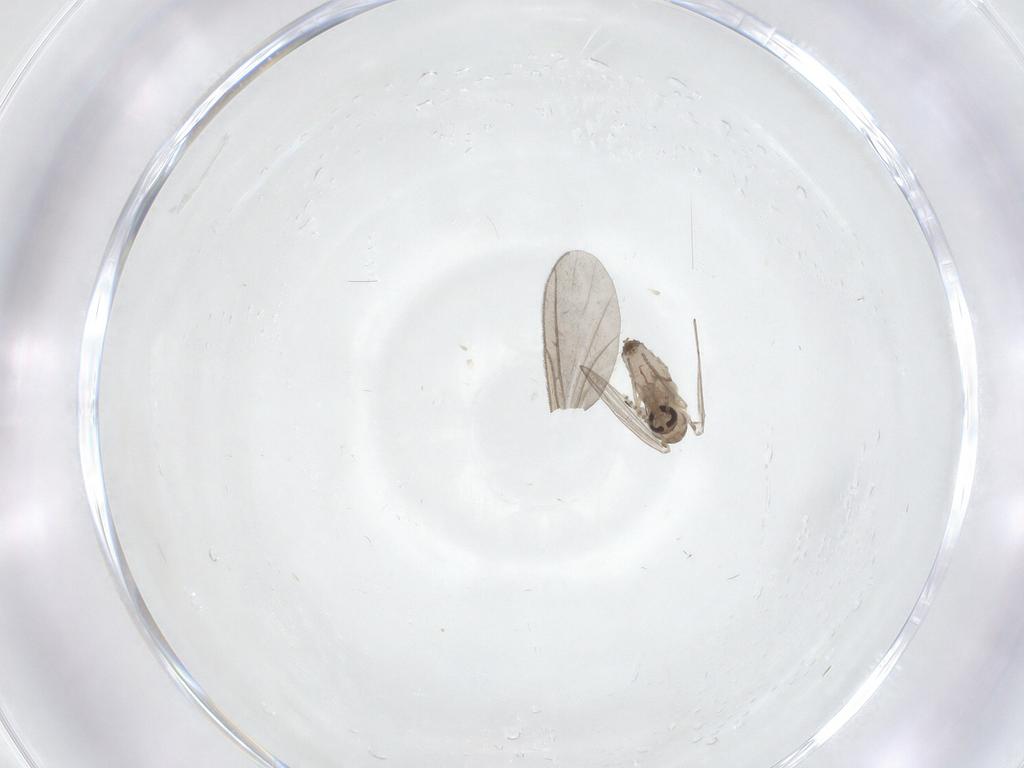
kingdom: Animalia
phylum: Arthropoda
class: Insecta
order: Diptera
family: Psychodidae
